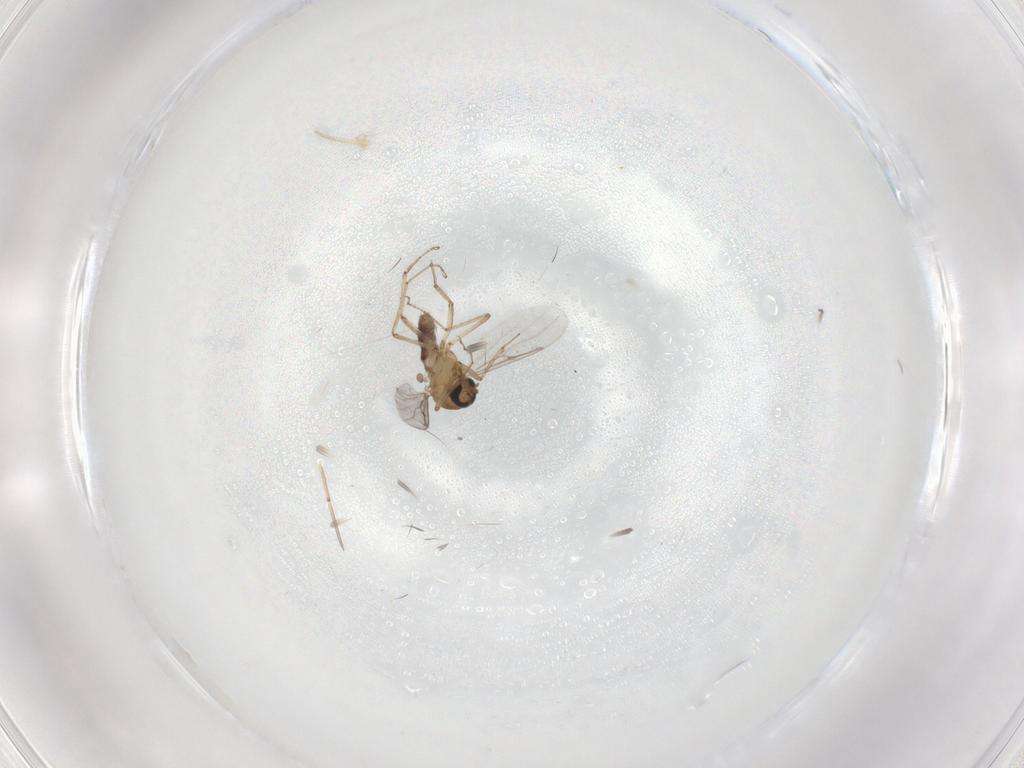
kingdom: Animalia
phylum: Arthropoda
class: Insecta
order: Diptera
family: Ceratopogonidae
